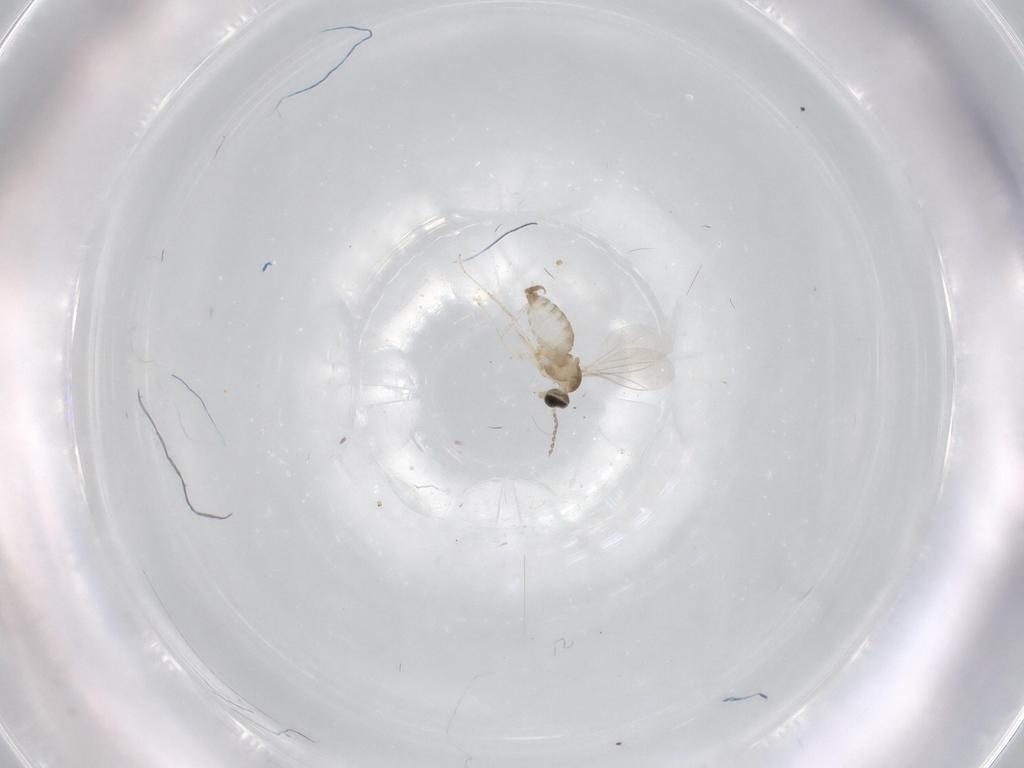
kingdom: Animalia
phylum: Arthropoda
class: Insecta
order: Diptera
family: Cecidomyiidae
